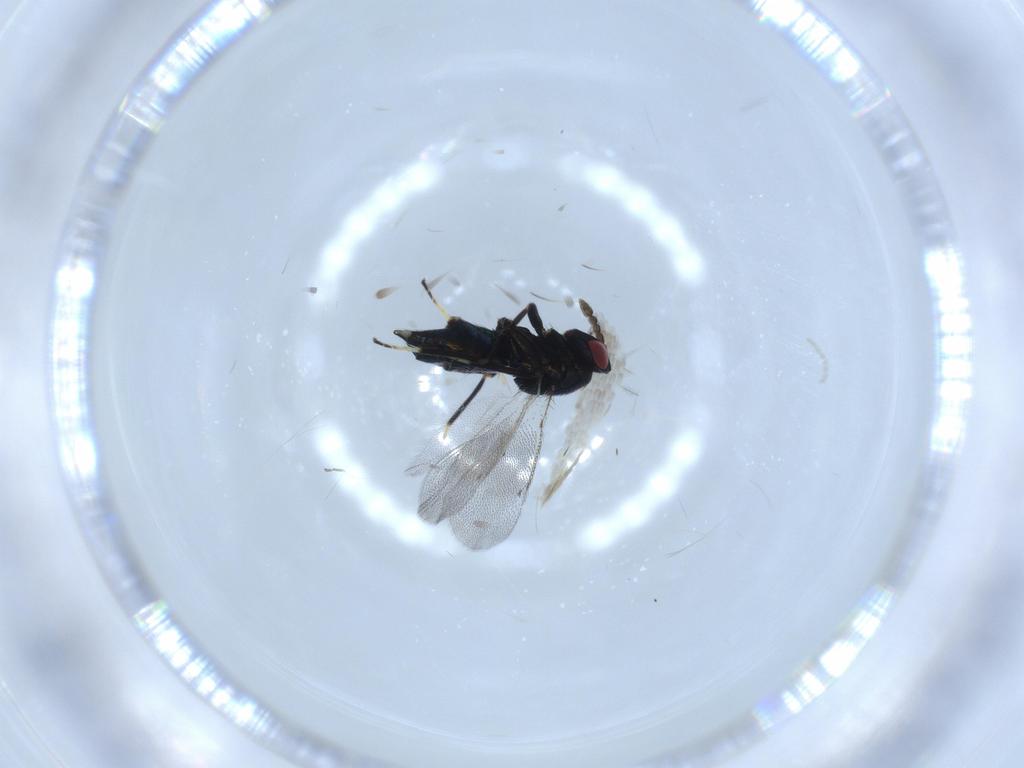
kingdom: Animalia
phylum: Arthropoda
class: Insecta
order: Hymenoptera
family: Eulophidae
